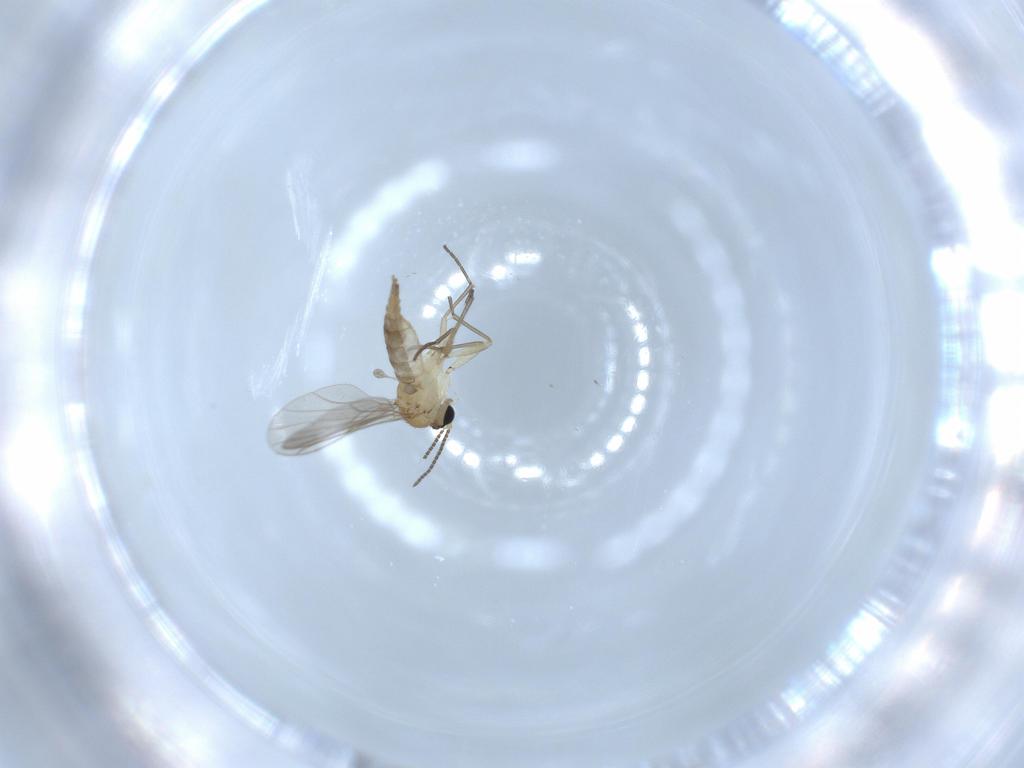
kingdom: Animalia
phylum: Arthropoda
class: Insecta
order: Diptera
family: Sciaridae
